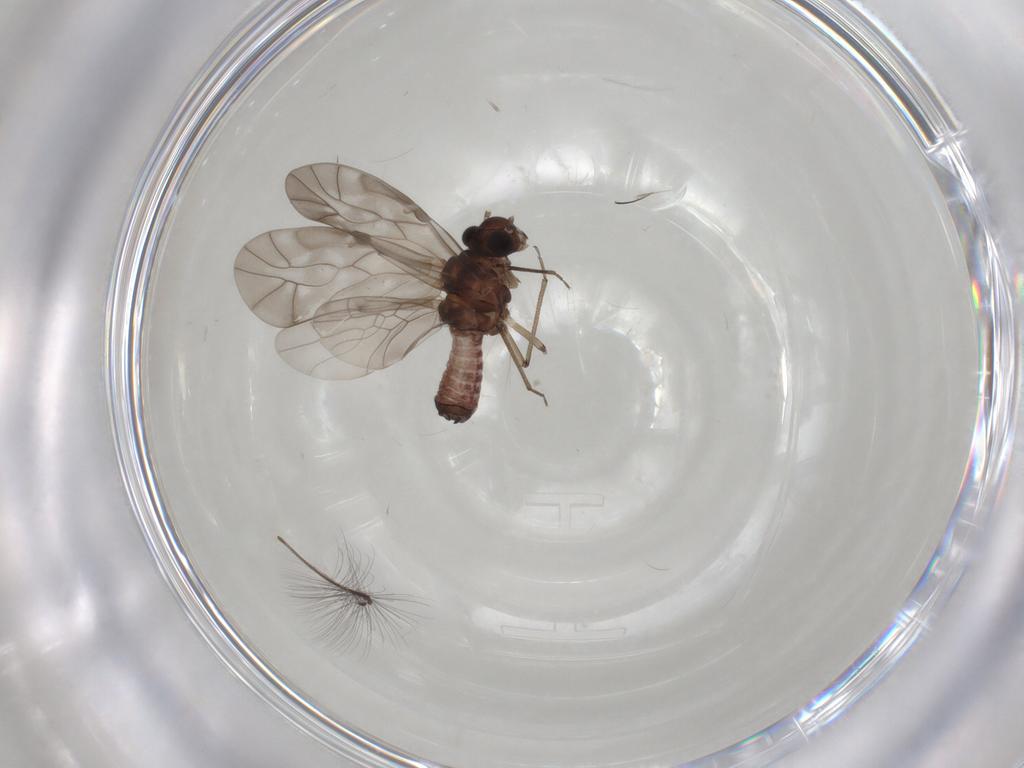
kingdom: Animalia
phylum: Arthropoda
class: Insecta
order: Psocodea
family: Peripsocidae
